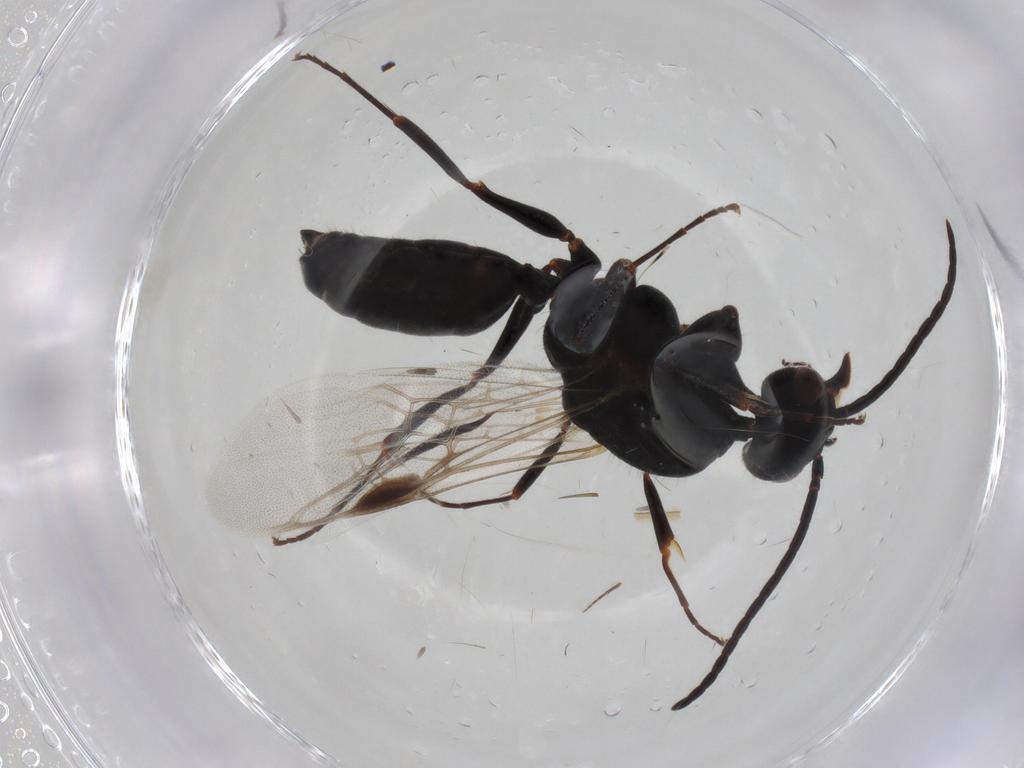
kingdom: Animalia
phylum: Arthropoda
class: Insecta
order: Hymenoptera
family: Formicidae
